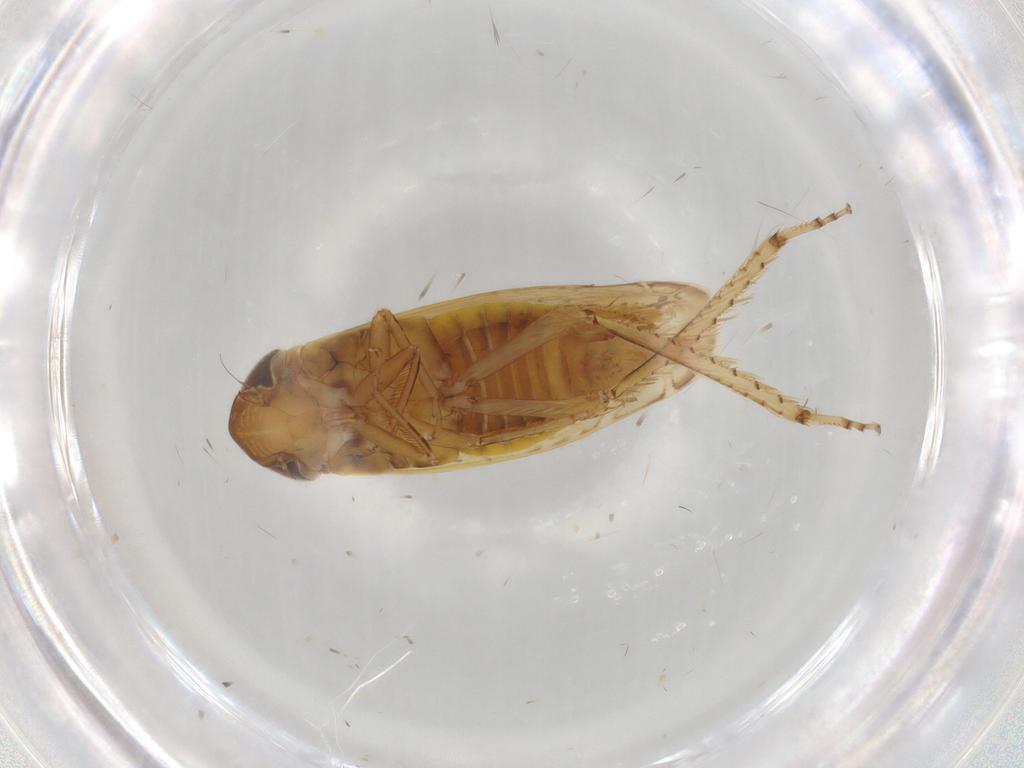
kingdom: Animalia
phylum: Arthropoda
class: Insecta
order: Hemiptera
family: Cicadellidae
